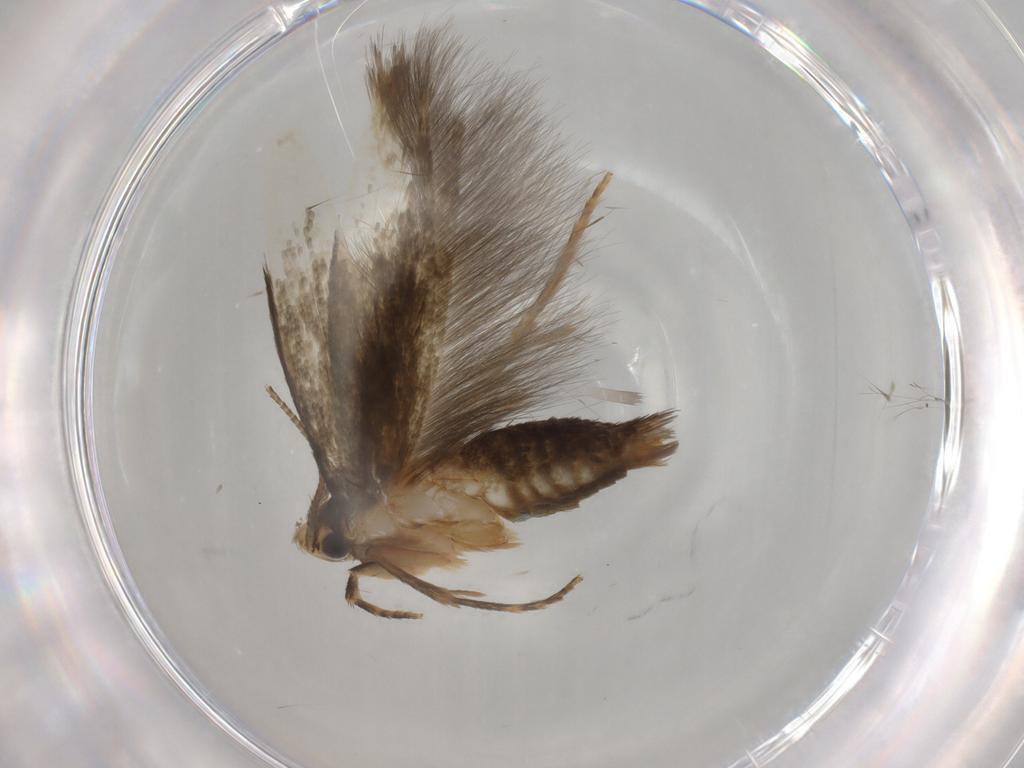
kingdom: Animalia
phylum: Arthropoda
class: Insecta
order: Lepidoptera
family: Tineidae
